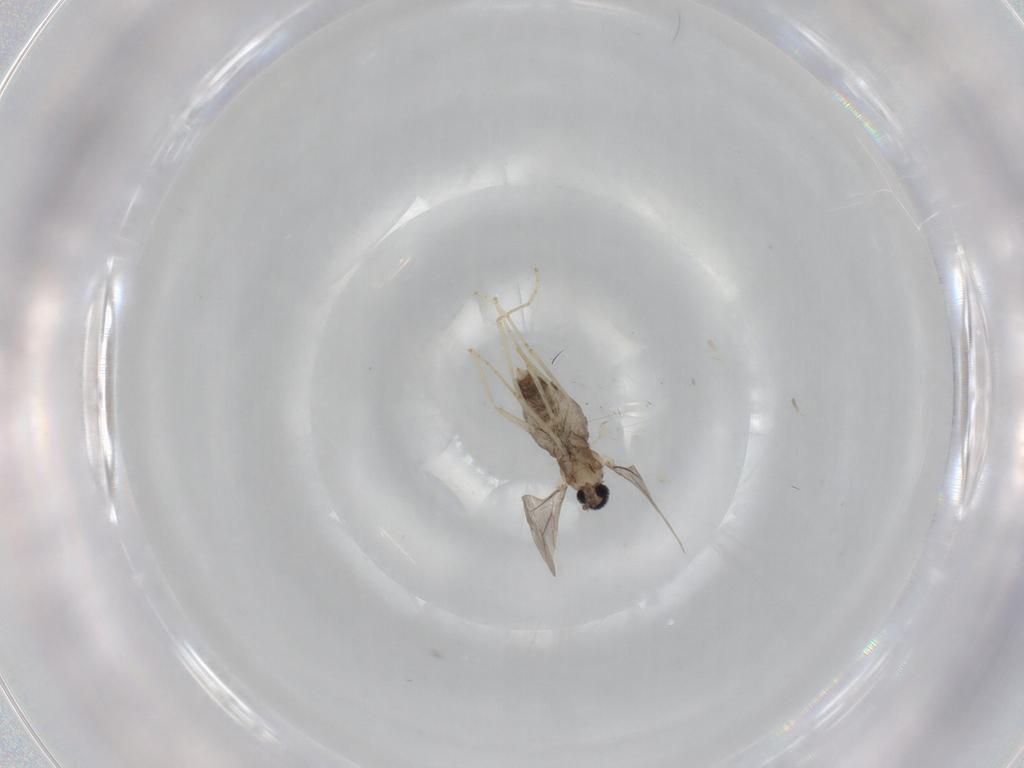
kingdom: Animalia
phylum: Arthropoda
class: Insecta
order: Diptera
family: Cecidomyiidae
